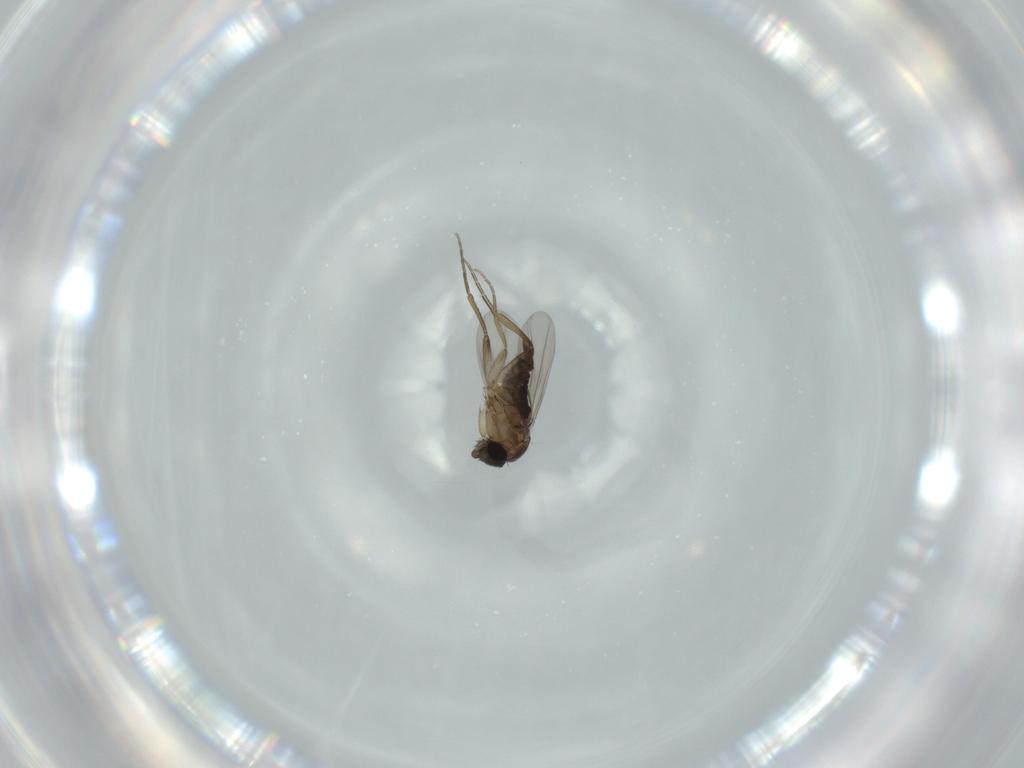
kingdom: Animalia
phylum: Arthropoda
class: Insecta
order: Diptera
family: Phoridae
